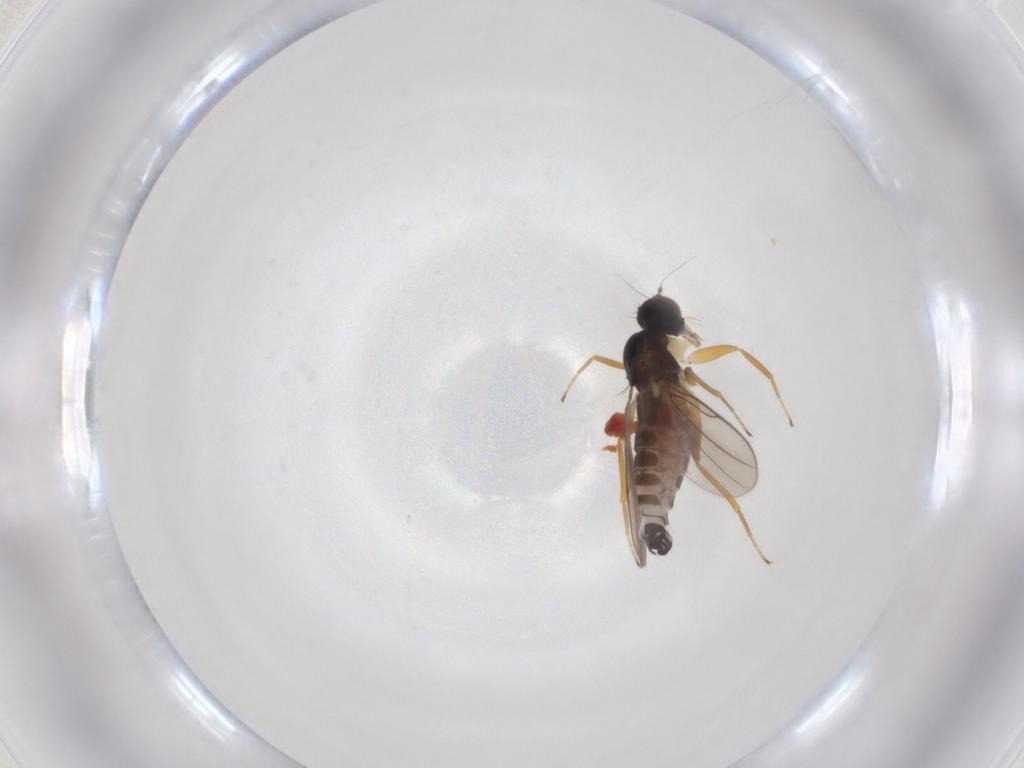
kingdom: Animalia
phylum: Arthropoda
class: Insecta
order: Diptera
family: Hybotidae
